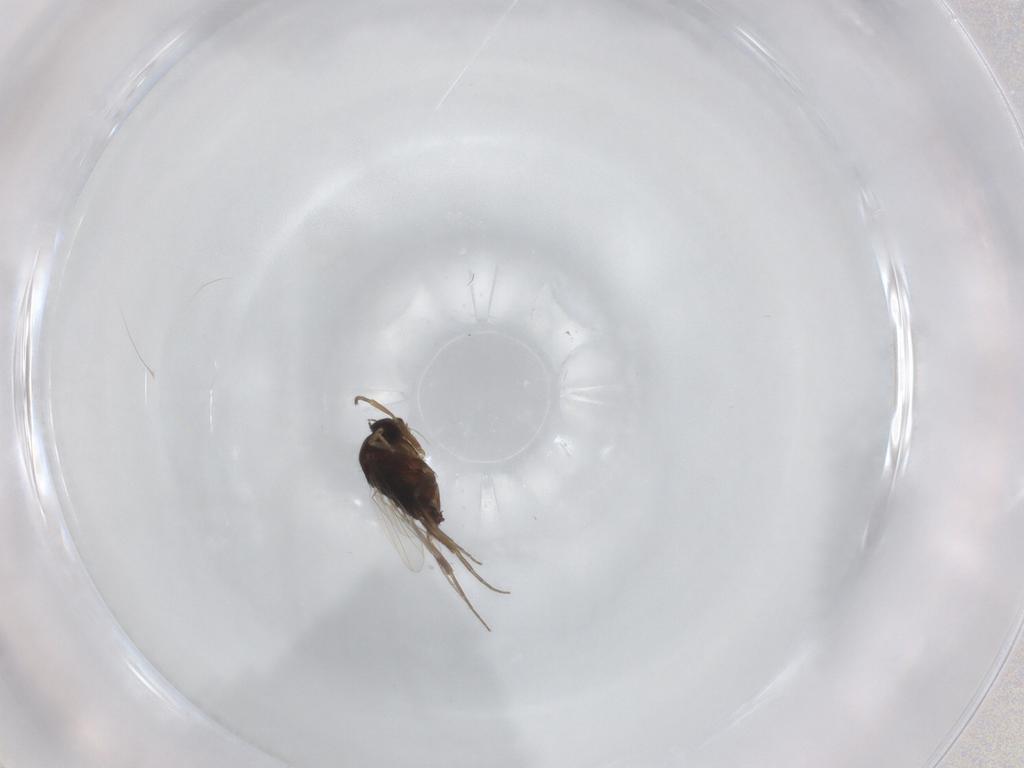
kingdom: Animalia
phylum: Arthropoda
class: Insecta
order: Diptera
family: Phoridae
